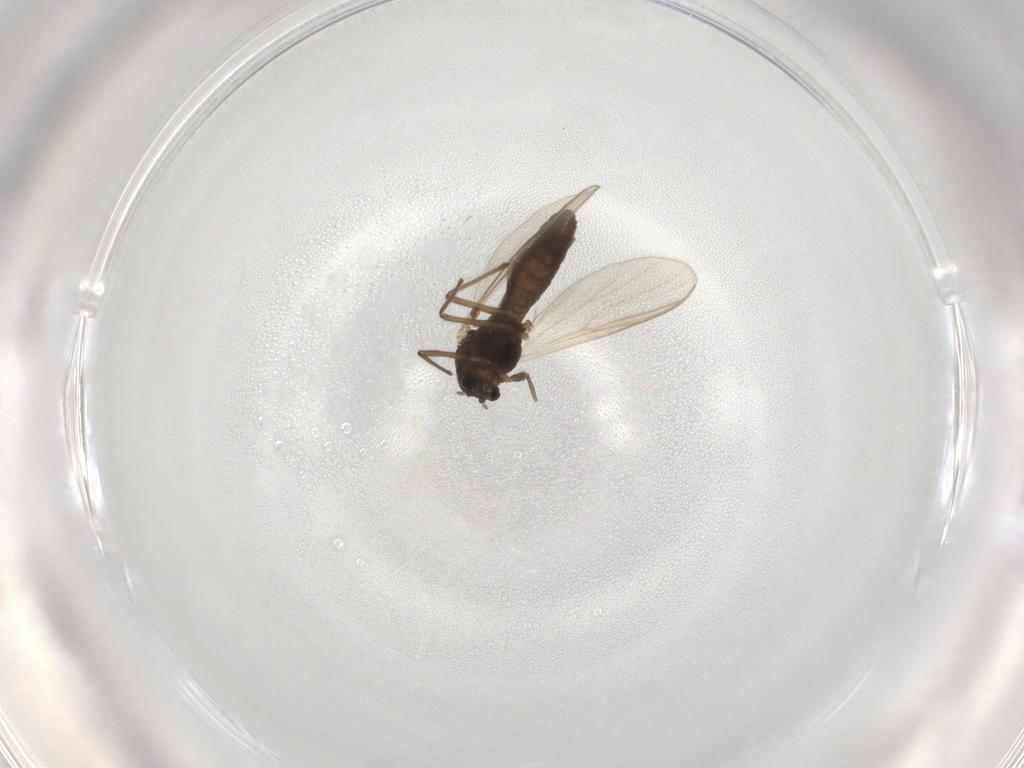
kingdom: Animalia
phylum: Arthropoda
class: Insecta
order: Diptera
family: Chironomidae
